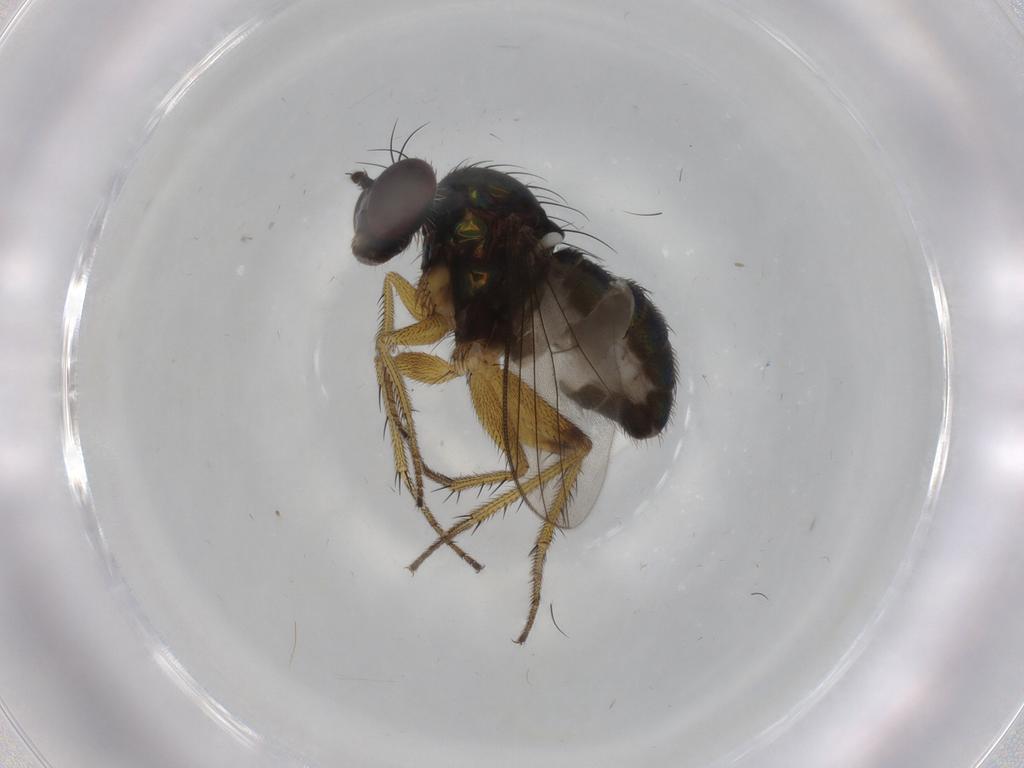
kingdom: Animalia
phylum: Arthropoda
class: Insecta
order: Diptera
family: Dolichopodidae
